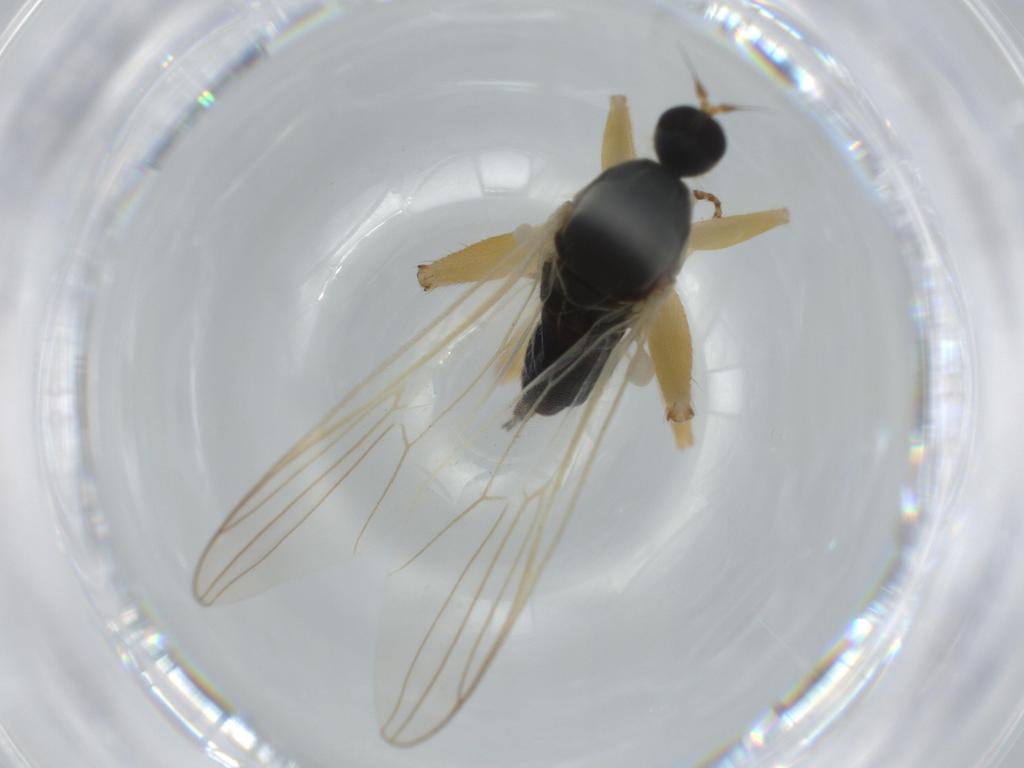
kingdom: Animalia
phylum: Arthropoda
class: Insecta
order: Diptera
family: Hybotidae
